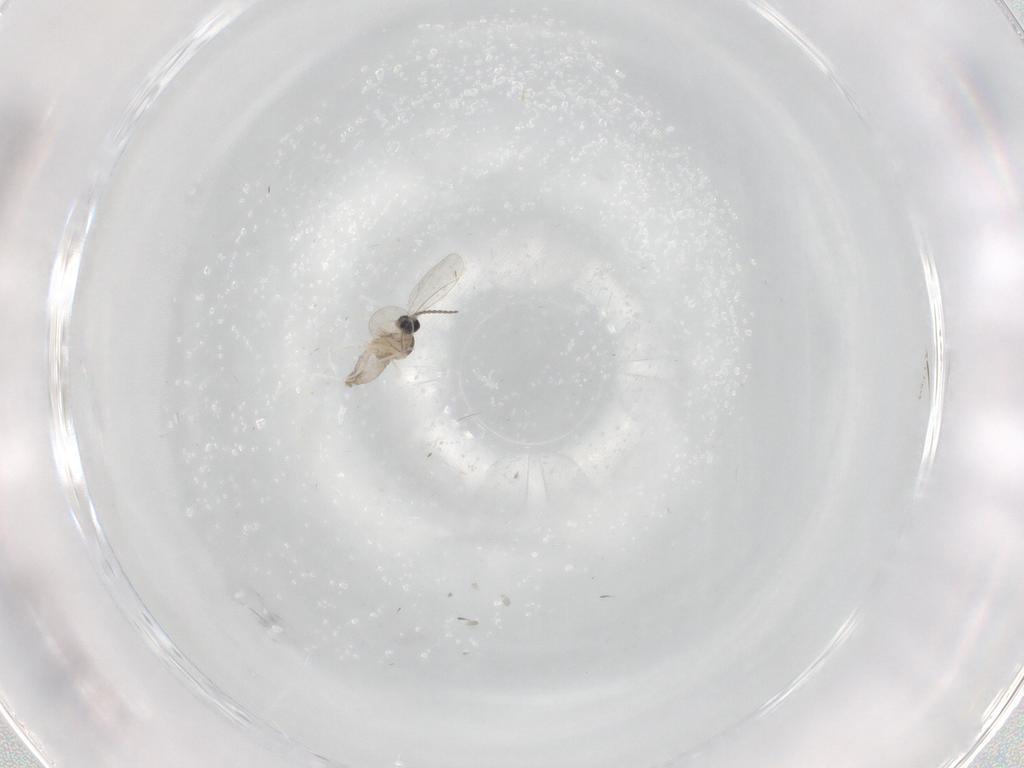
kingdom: Animalia
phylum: Arthropoda
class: Insecta
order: Diptera
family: Cecidomyiidae
